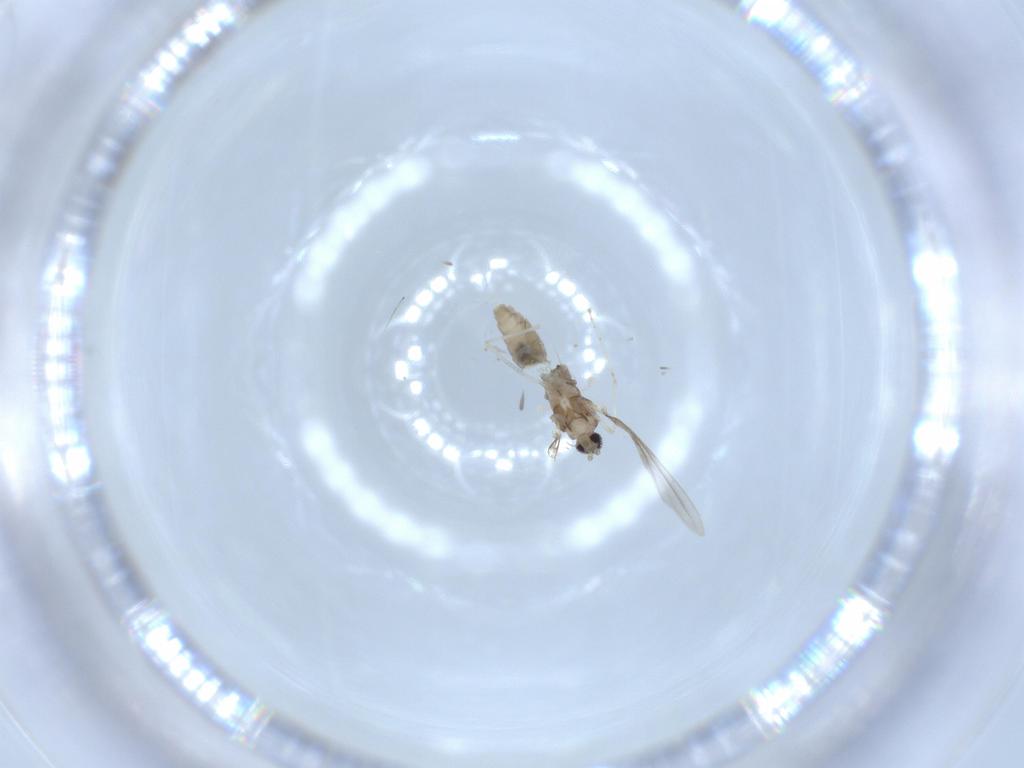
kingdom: Animalia
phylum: Arthropoda
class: Insecta
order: Diptera
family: Cecidomyiidae
